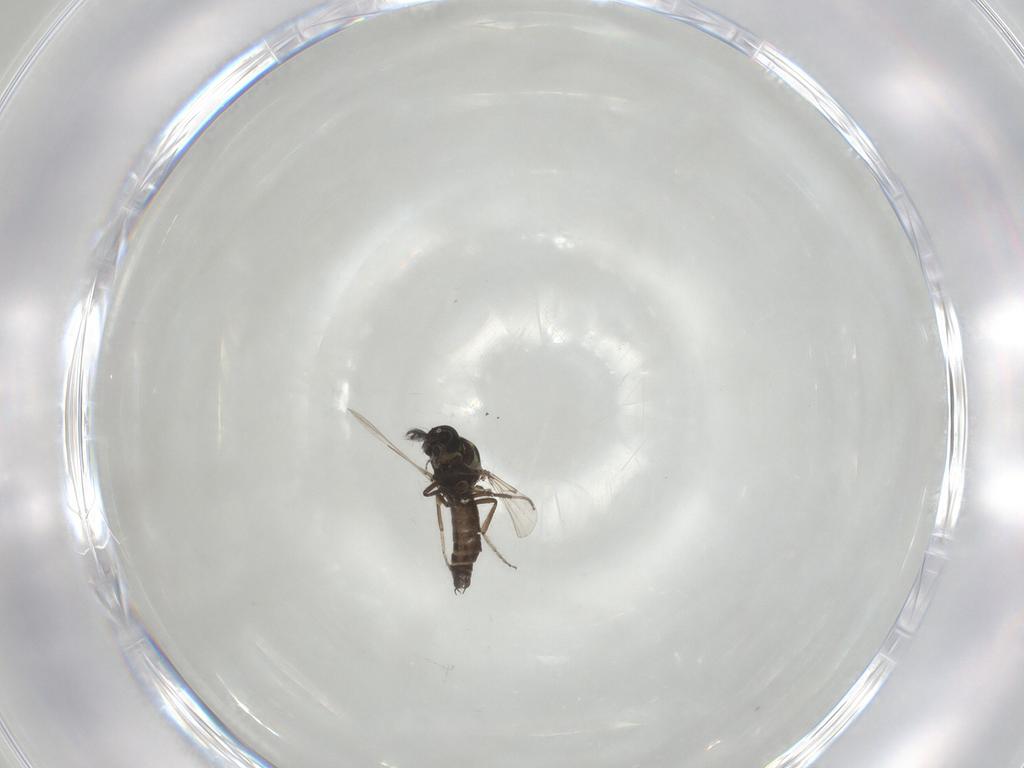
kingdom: Animalia
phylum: Arthropoda
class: Insecta
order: Diptera
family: Ceratopogonidae
